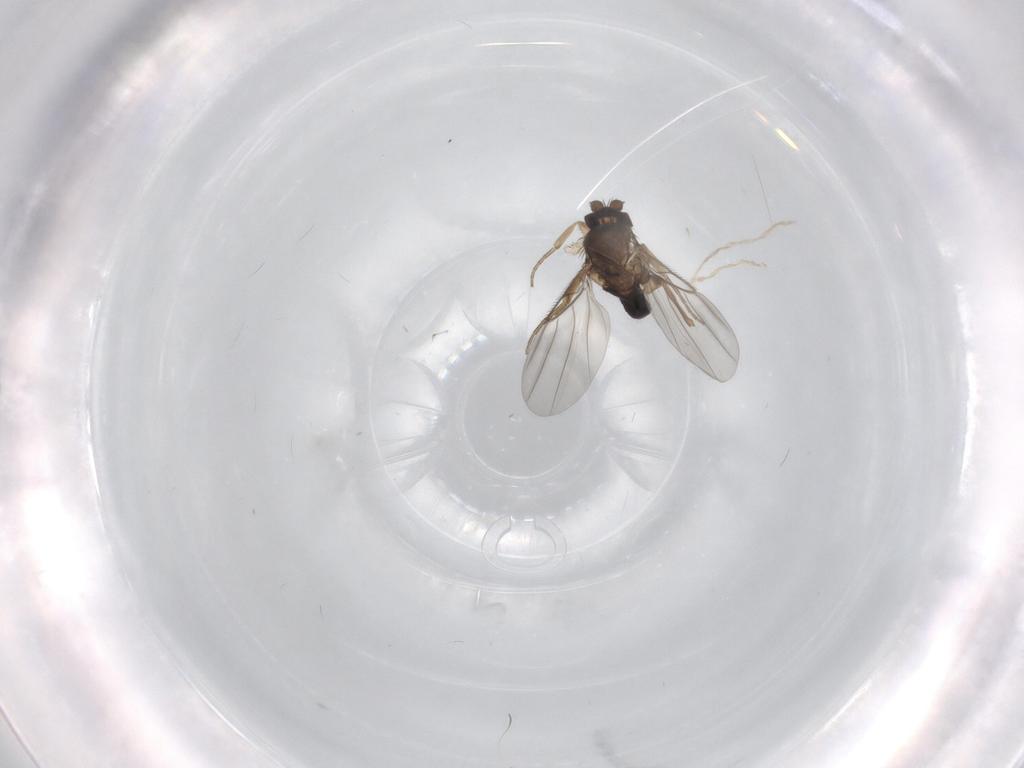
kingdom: Animalia
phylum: Arthropoda
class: Insecta
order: Diptera
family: Phoridae
